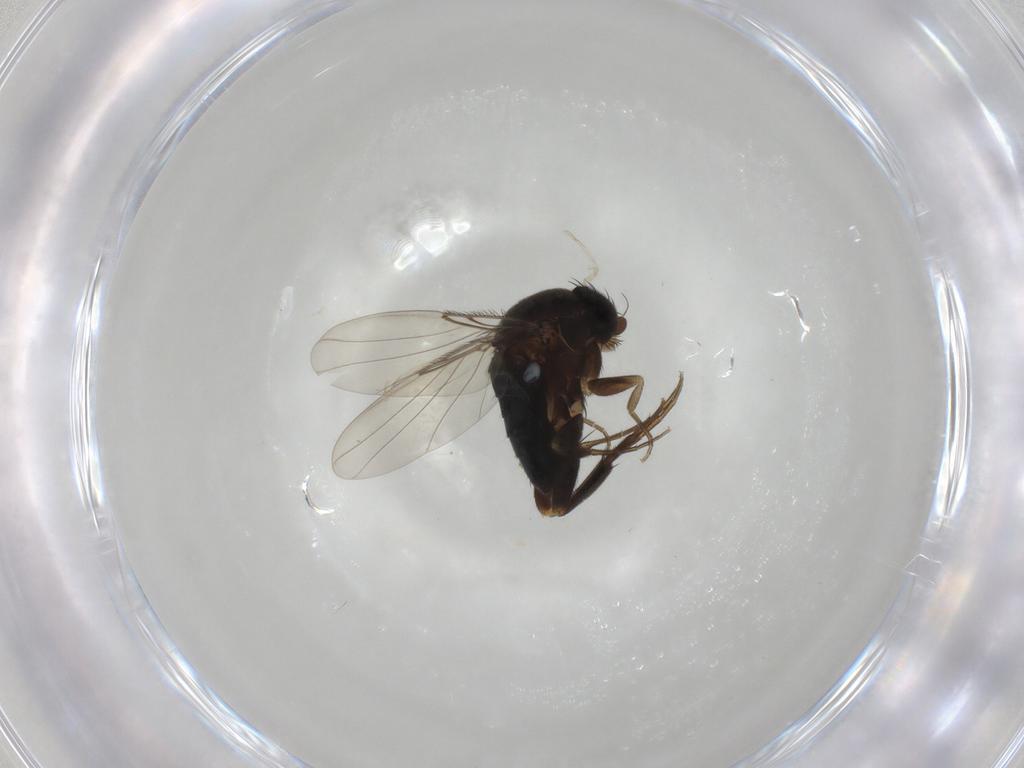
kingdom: Animalia
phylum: Arthropoda
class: Insecta
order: Diptera
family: Phoridae
